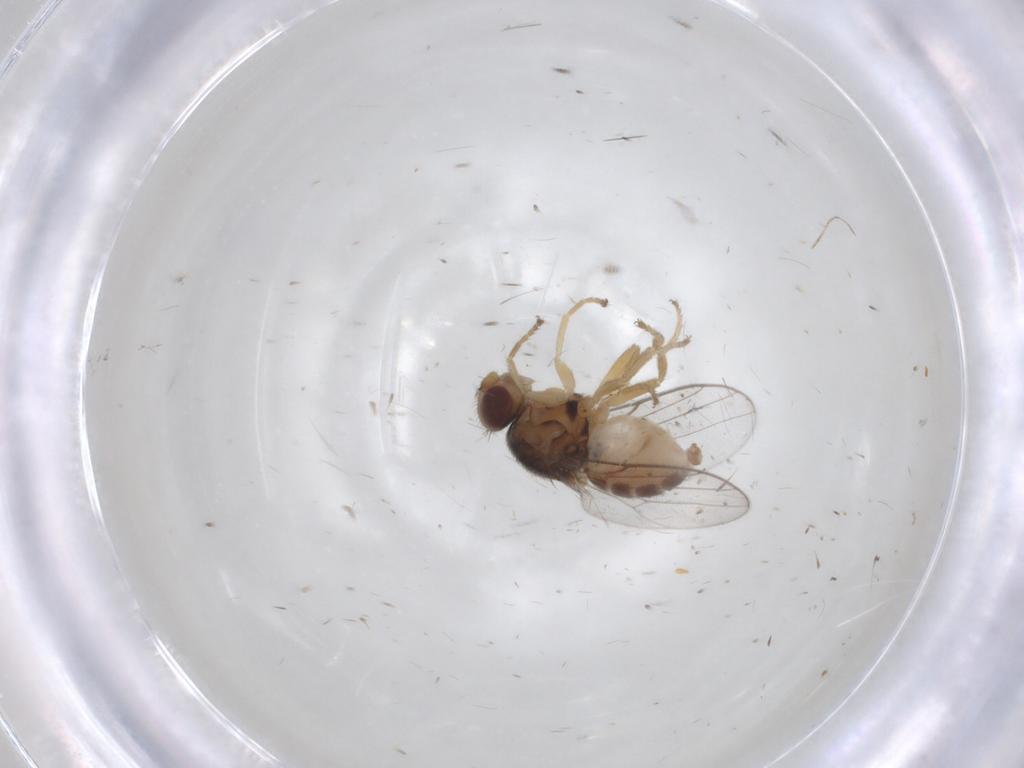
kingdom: Animalia
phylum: Arthropoda
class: Insecta
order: Diptera
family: Chloropidae
